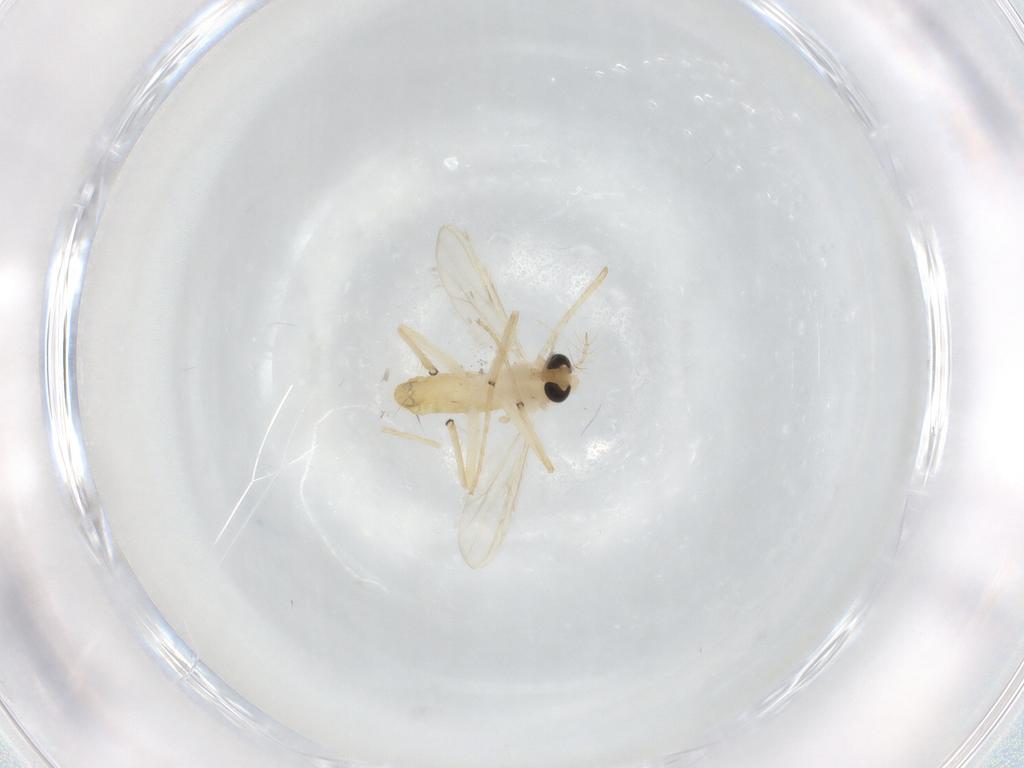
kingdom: Animalia
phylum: Arthropoda
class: Insecta
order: Diptera
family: Chironomidae
